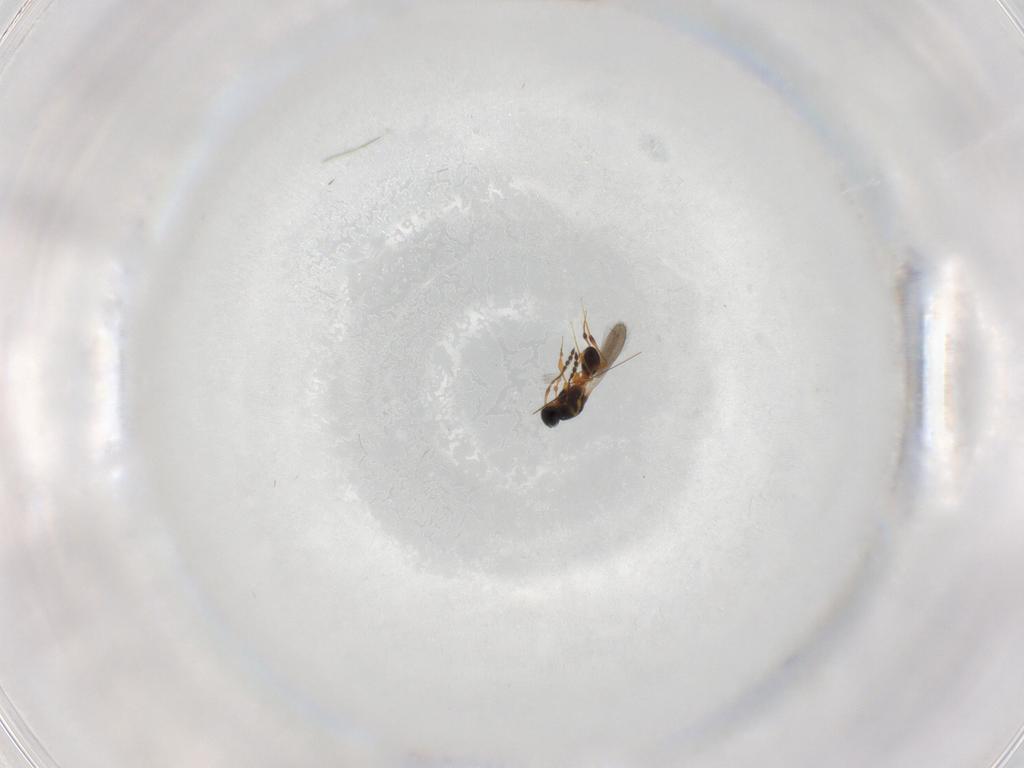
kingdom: Animalia
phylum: Arthropoda
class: Insecta
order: Hymenoptera
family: Platygastridae
